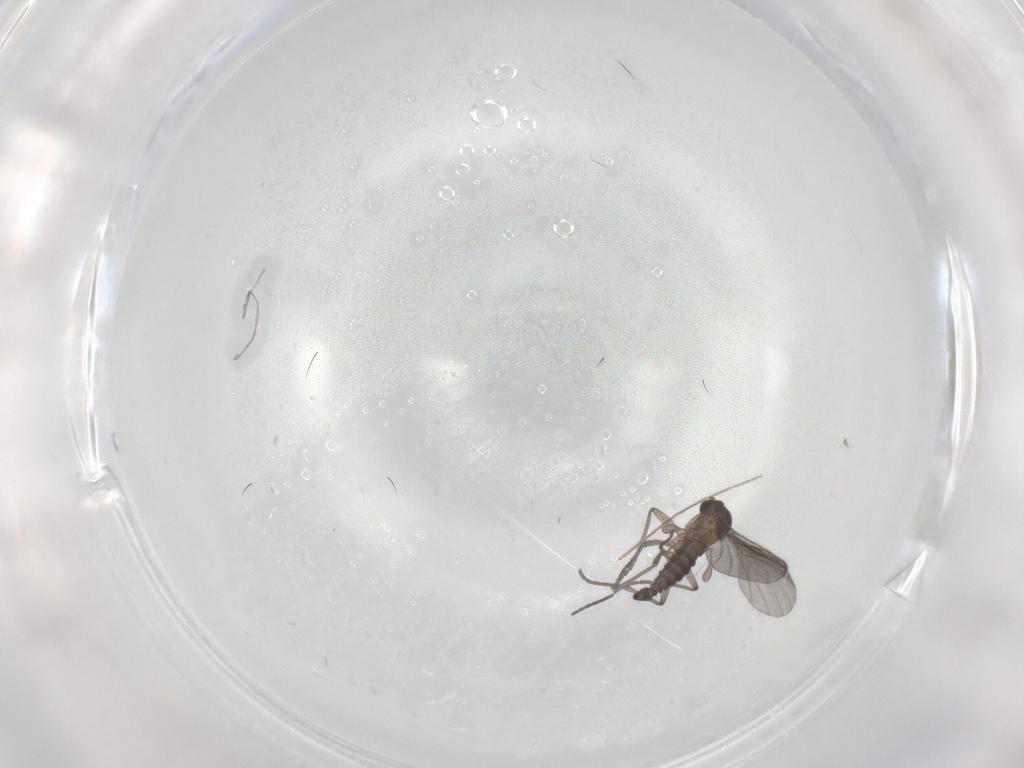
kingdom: Animalia
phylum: Arthropoda
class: Insecta
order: Diptera
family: Sciaridae
